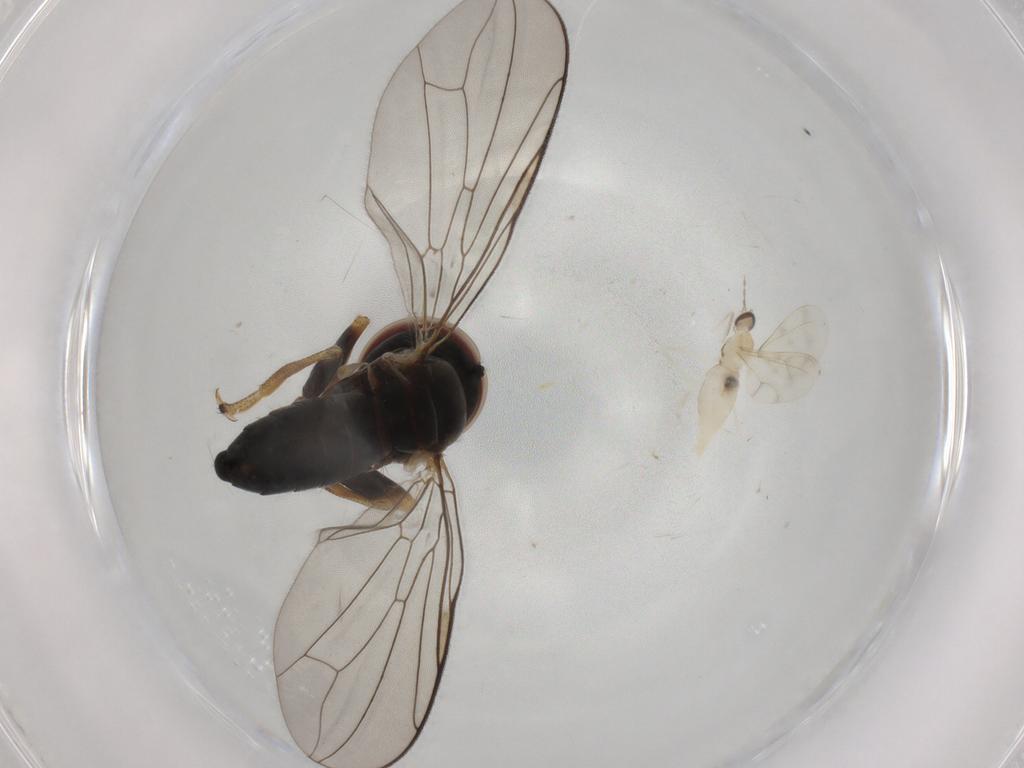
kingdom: Animalia
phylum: Arthropoda
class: Insecta
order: Diptera
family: Pipunculidae
